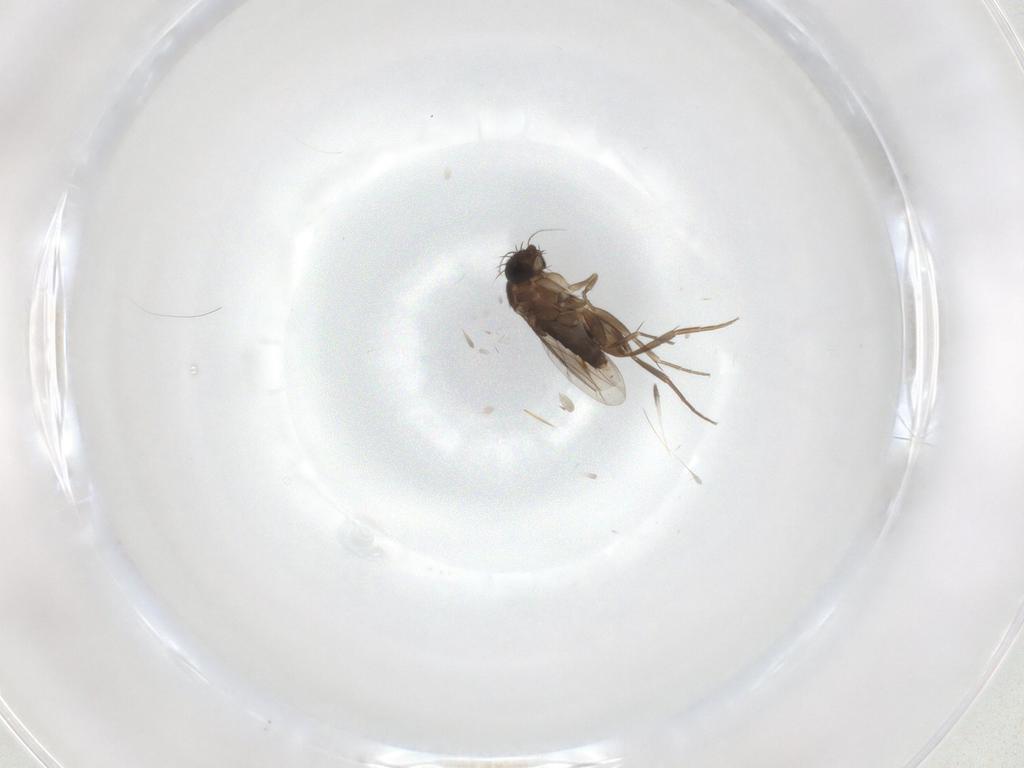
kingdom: Animalia
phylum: Arthropoda
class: Insecta
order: Diptera
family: Phoridae
